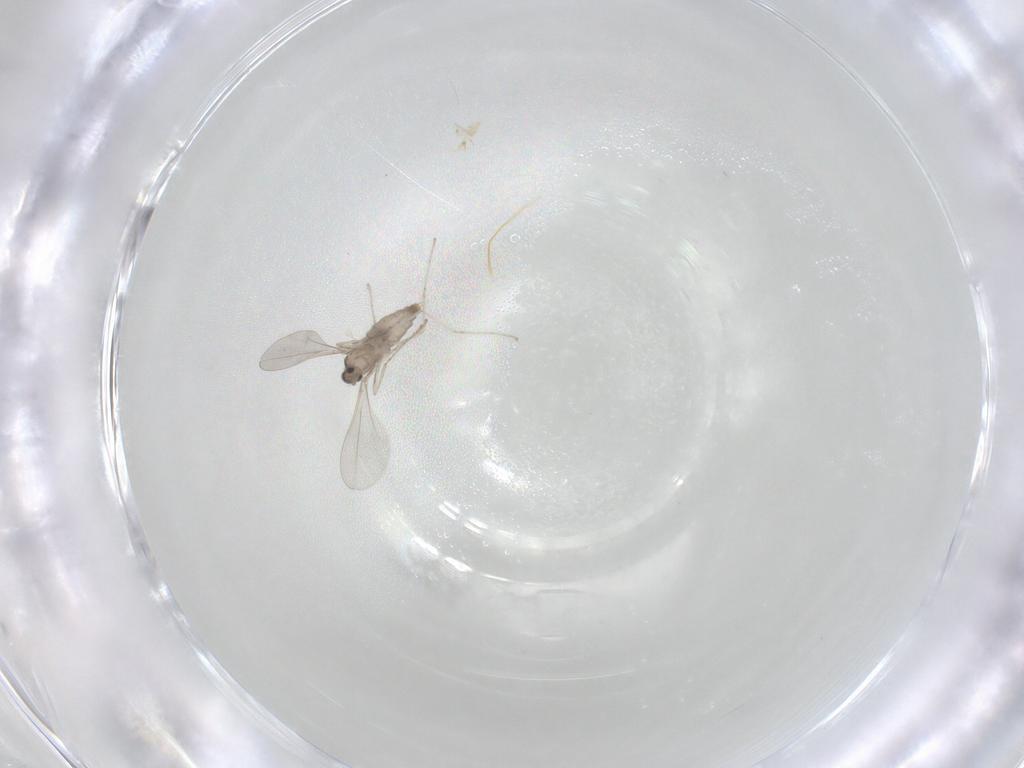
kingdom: Animalia
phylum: Arthropoda
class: Insecta
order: Diptera
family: Cecidomyiidae
